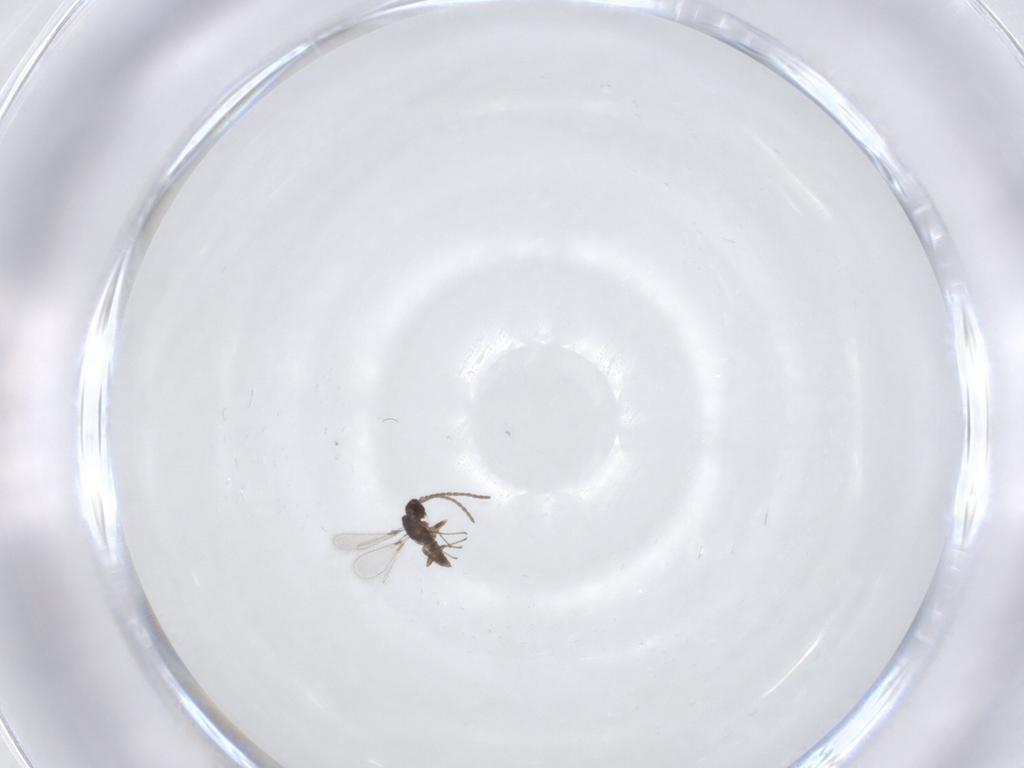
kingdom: Animalia
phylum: Arthropoda
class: Insecta
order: Hymenoptera
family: Mymaridae
